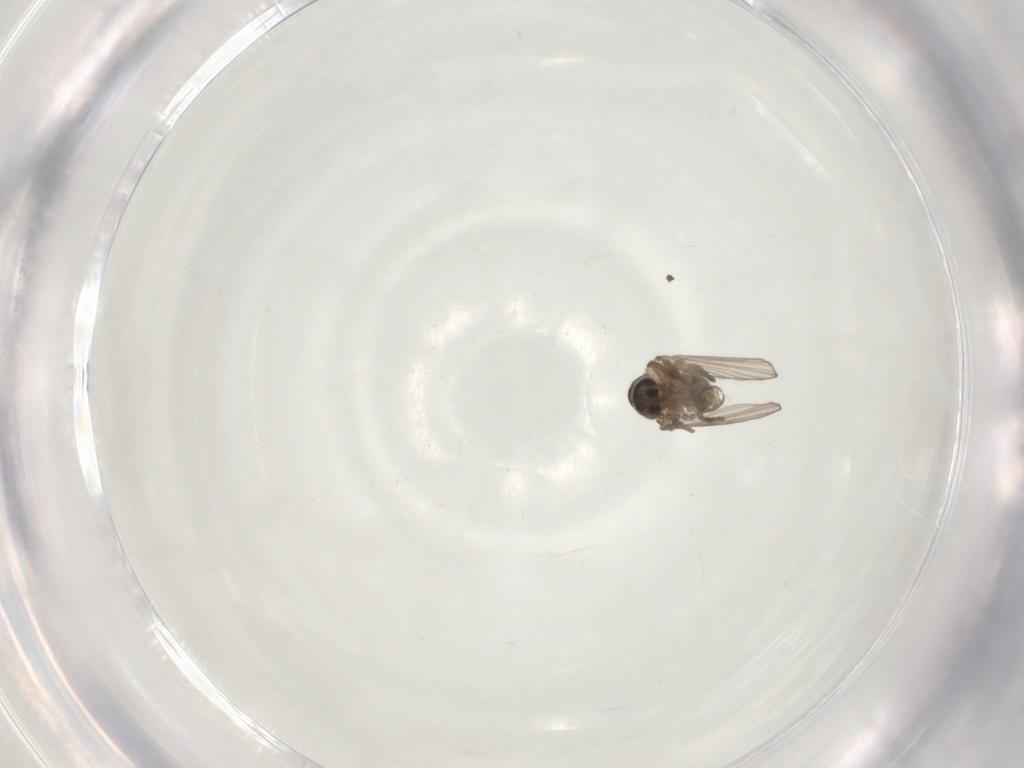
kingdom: Animalia
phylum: Arthropoda
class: Insecta
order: Diptera
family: Psychodidae
